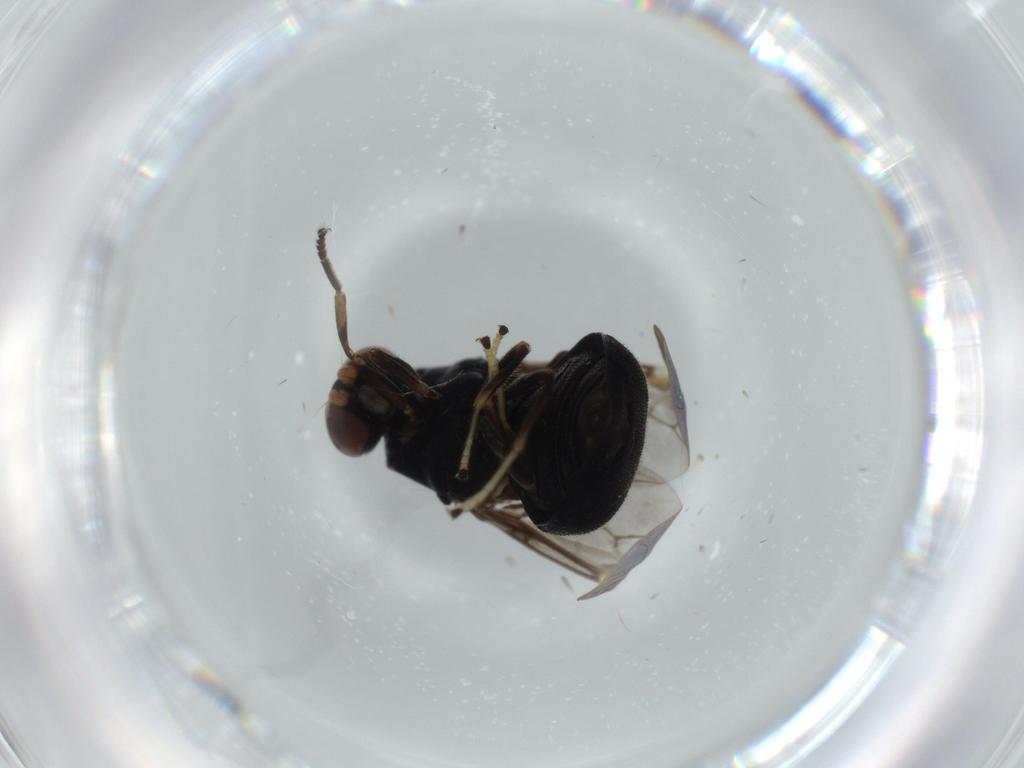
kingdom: Animalia
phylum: Arthropoda
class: Insecta
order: Diptera
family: Stratiomyidae
